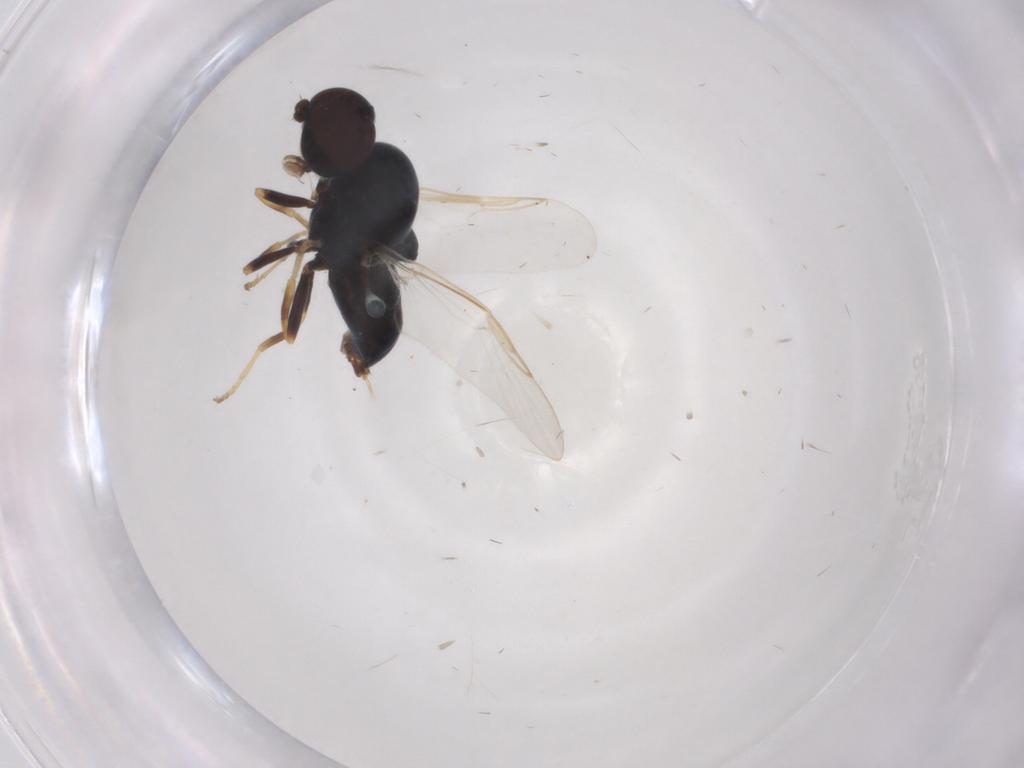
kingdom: Animalia
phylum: Arthropoda
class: Insecta
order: Diptera
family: Stratiomyidae
